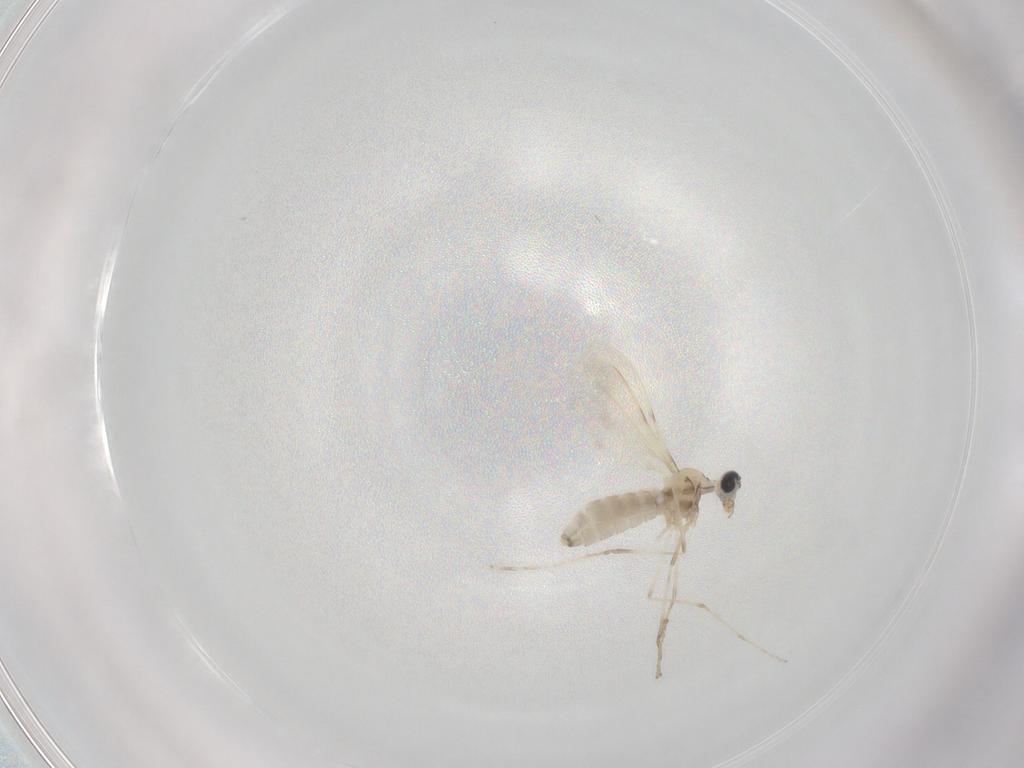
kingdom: Animalia
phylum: Arthropoda
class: Insecta
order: Diptera
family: Cecidomyiidae
